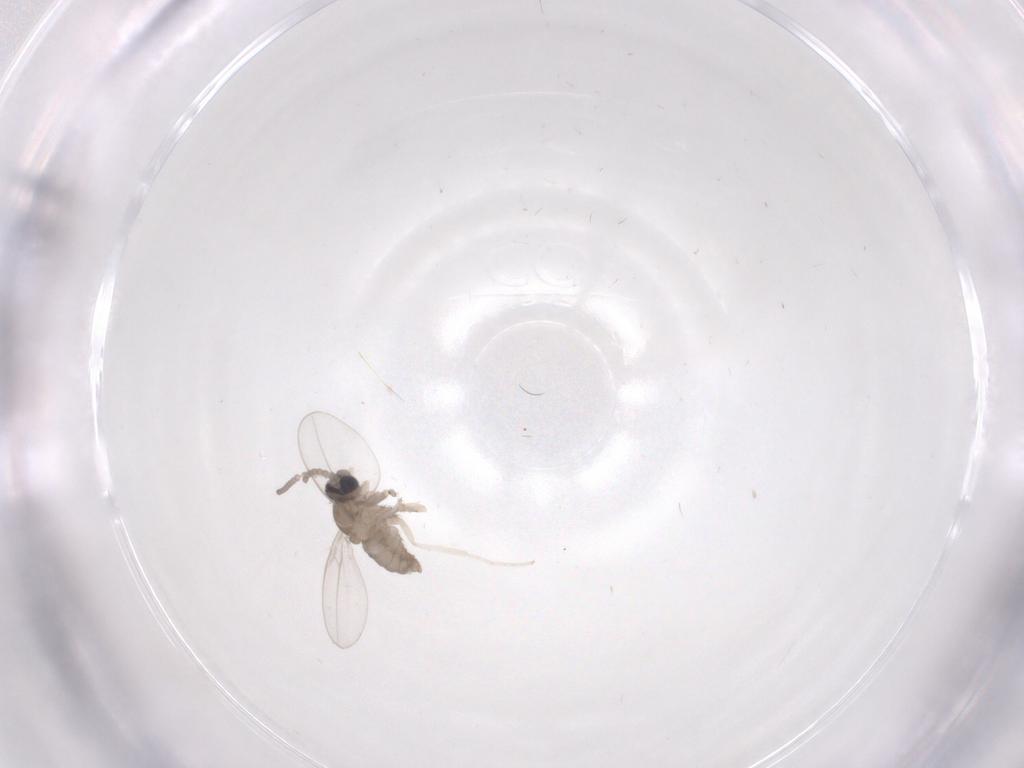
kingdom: Animalia
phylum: Arthropoda
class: Insecta
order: Diptera
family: Cecidomyiidae
